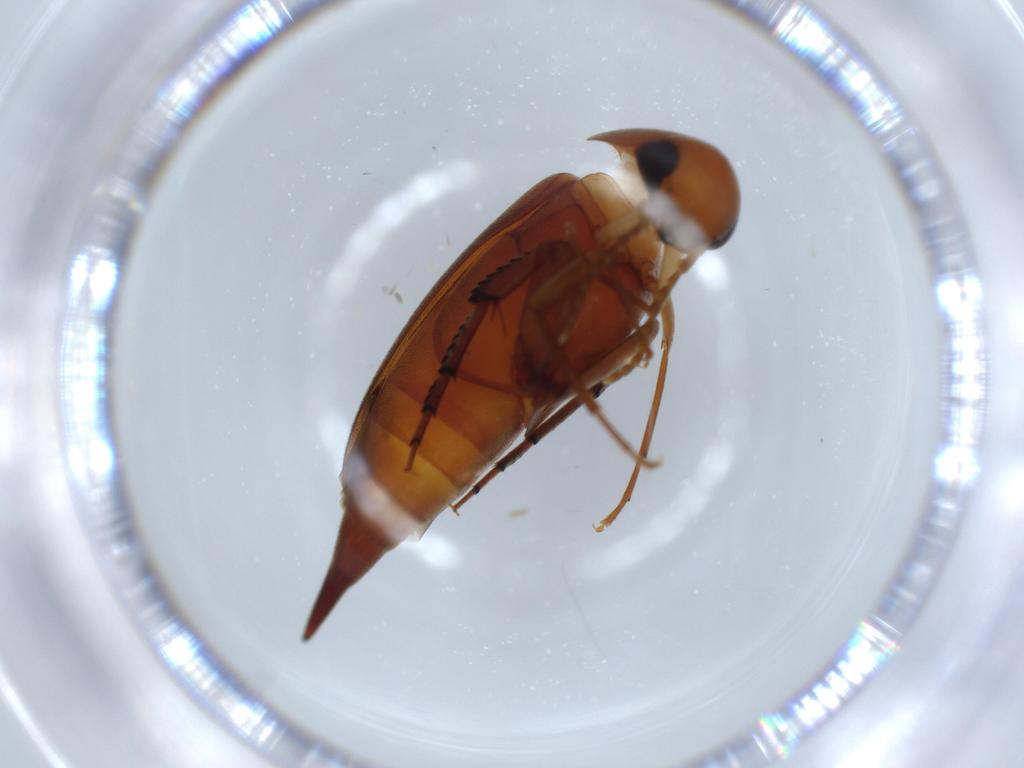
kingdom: Animalia
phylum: Arthropoda
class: Insecta
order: Coleoptera
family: Mordellidae
